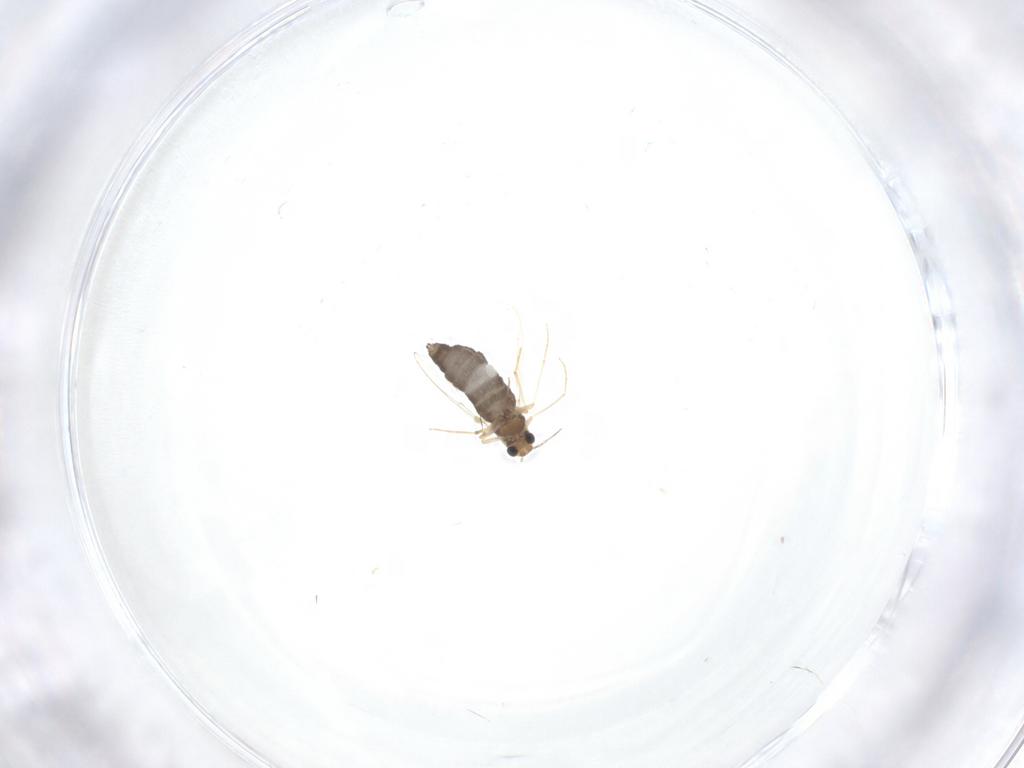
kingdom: Animalia
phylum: Arthropoda
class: Insecta
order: Diptera
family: Chironomidae
